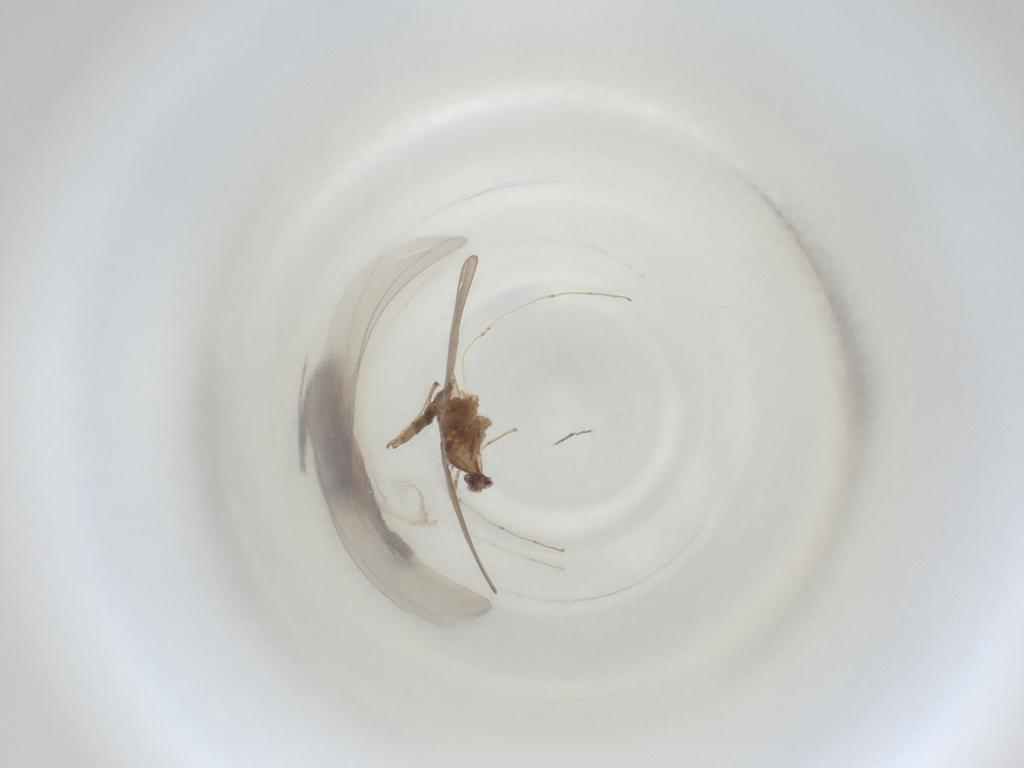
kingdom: Animalia
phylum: Arthropoda
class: Insecta
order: Diptera
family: Cecidomyiidae
